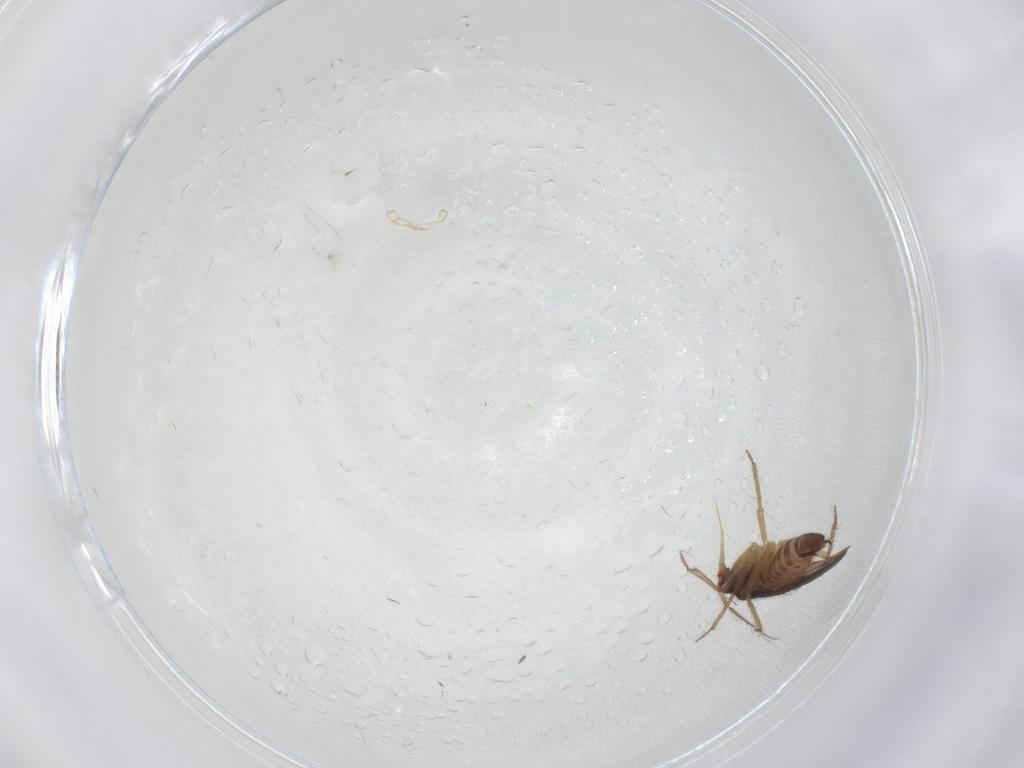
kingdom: Animalia
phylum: Arthropoda
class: Insecta
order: Hemiptera
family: Ceratocombidae
